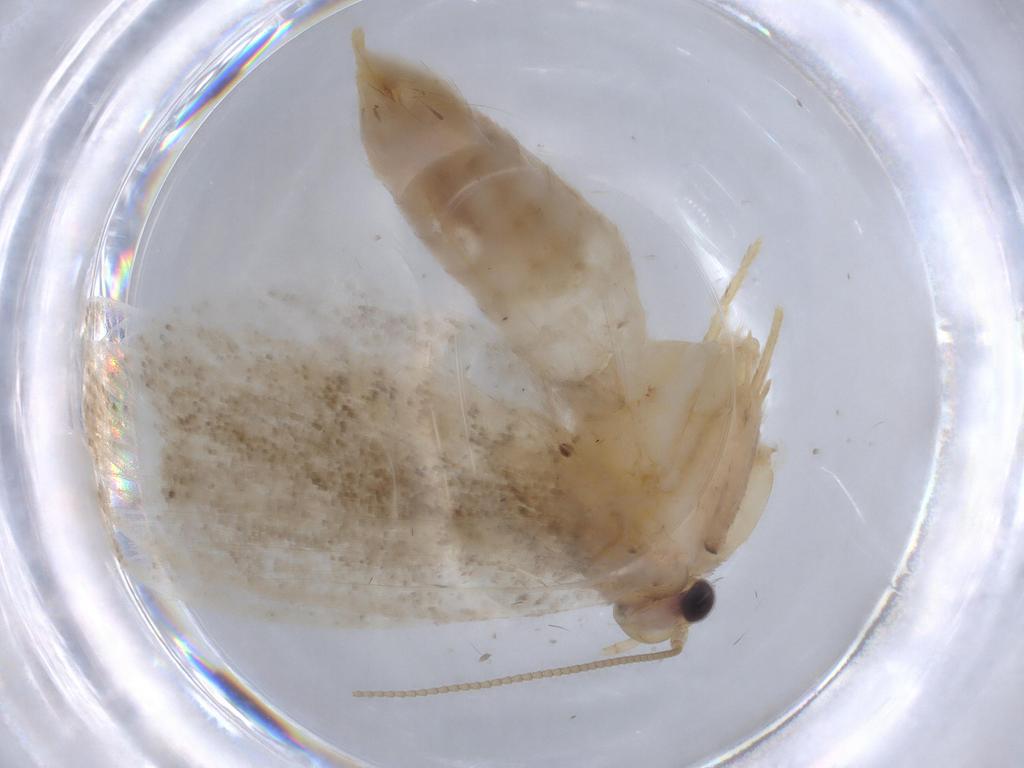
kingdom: Animalia
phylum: Arthropoda
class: Insecta
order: Lepidoptera
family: Tineidae
